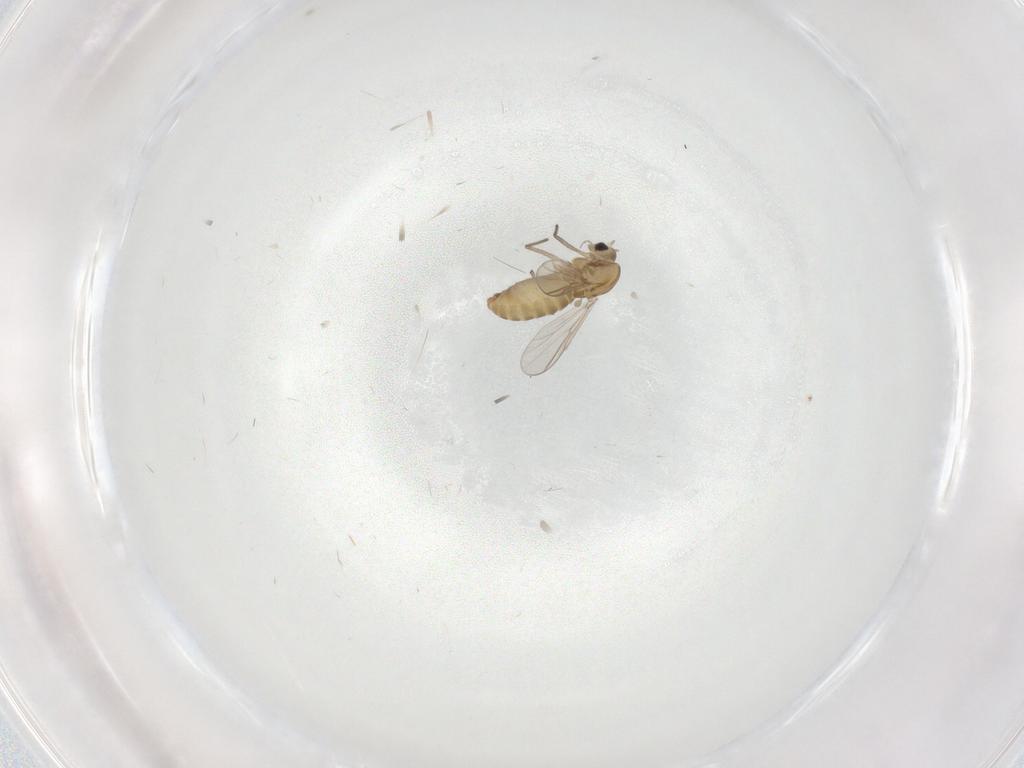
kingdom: Animalia
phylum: Arthropoda
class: Insecta
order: Diptera
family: Chironomidae
